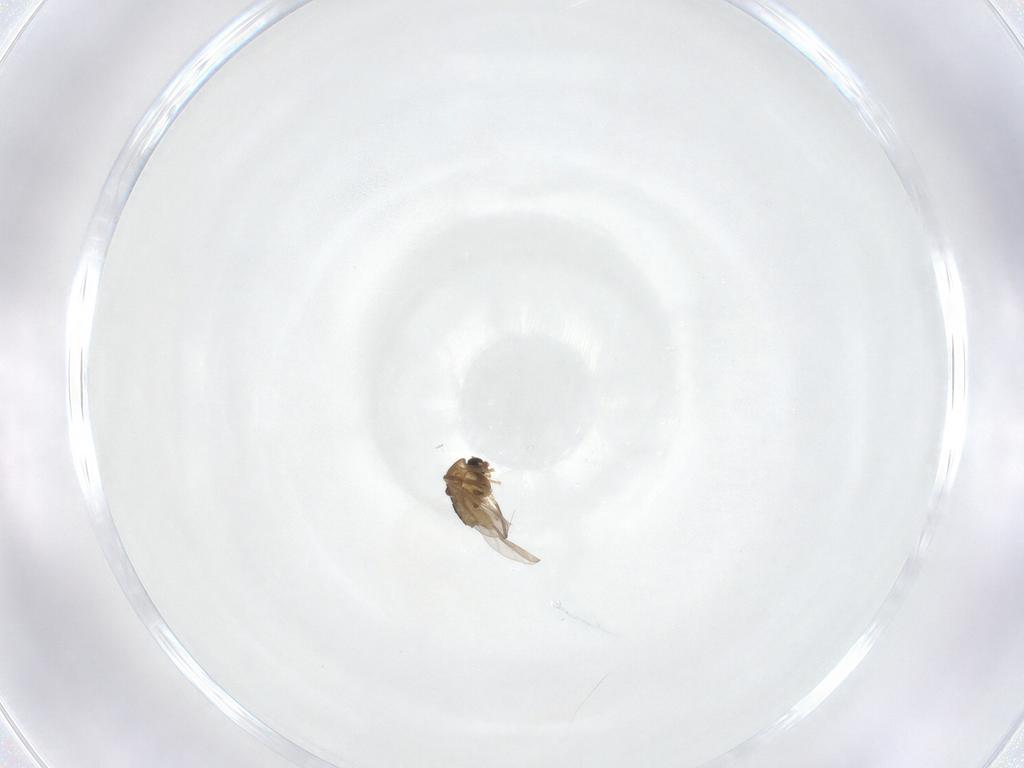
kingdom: Animalia
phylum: Arthropoda
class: Insecta
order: Diptera
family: Chironomidae
